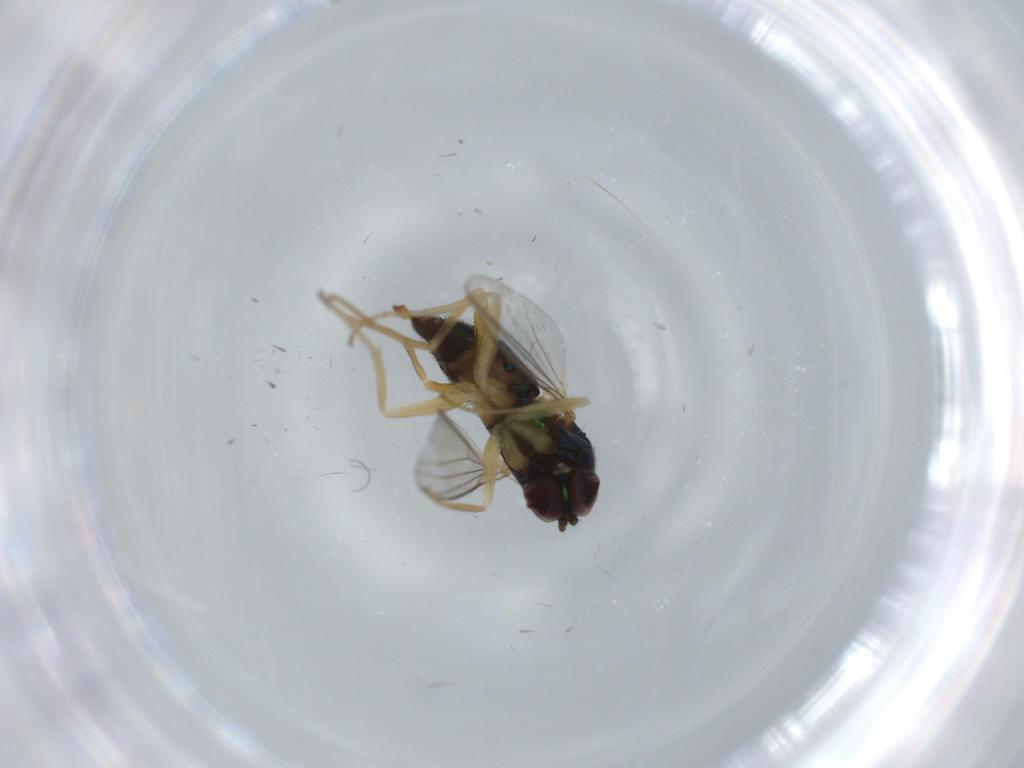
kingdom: Animalia
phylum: Arthropoda
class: Insecta
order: Diptera
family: Dolichopodidae
